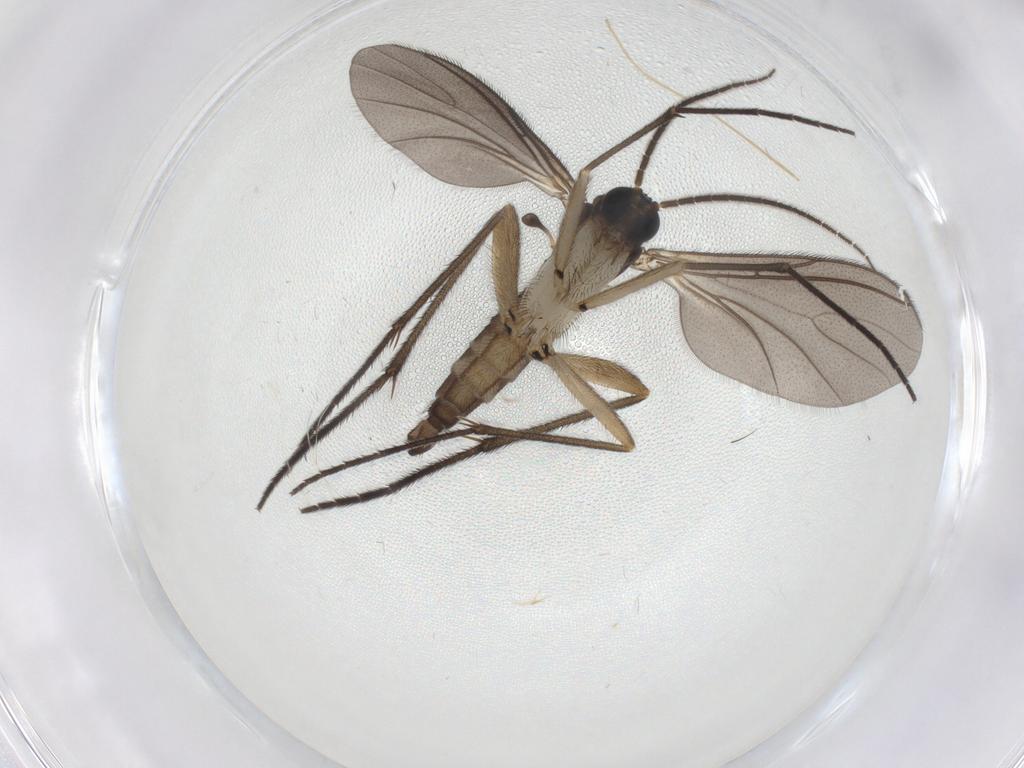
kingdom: Animalia
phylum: Arthropoda
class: Insecta
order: Diptera
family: Sciaridae
